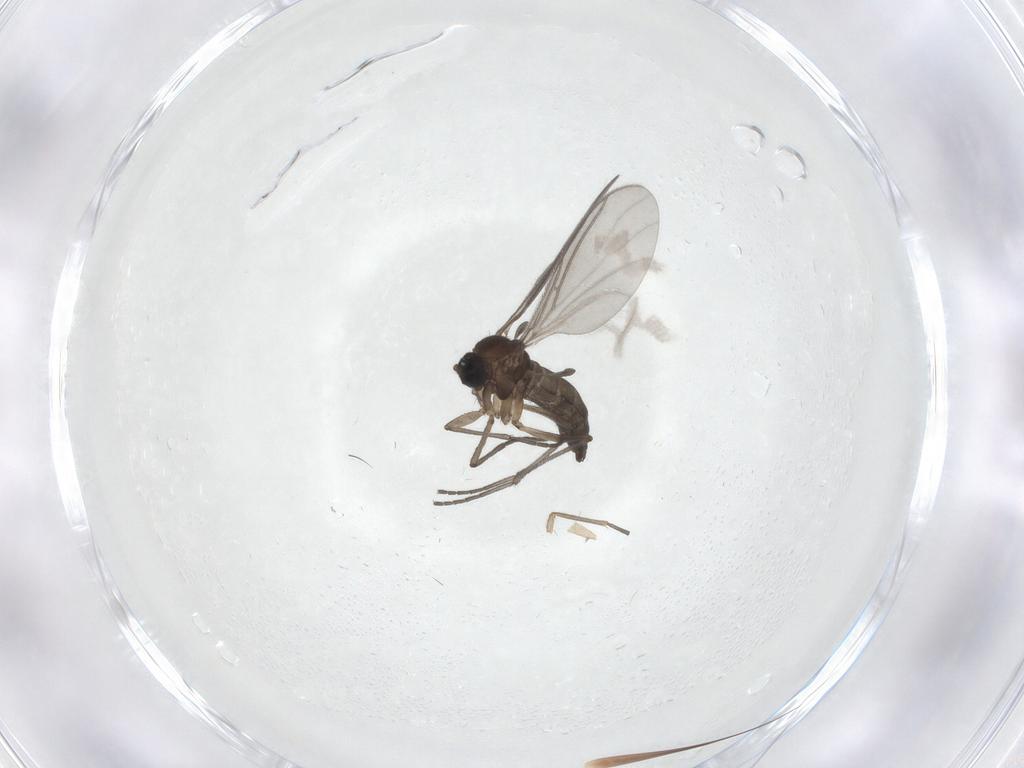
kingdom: Animalia
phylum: Arthropoda
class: Insecta
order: Diptera
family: Sciaridae
